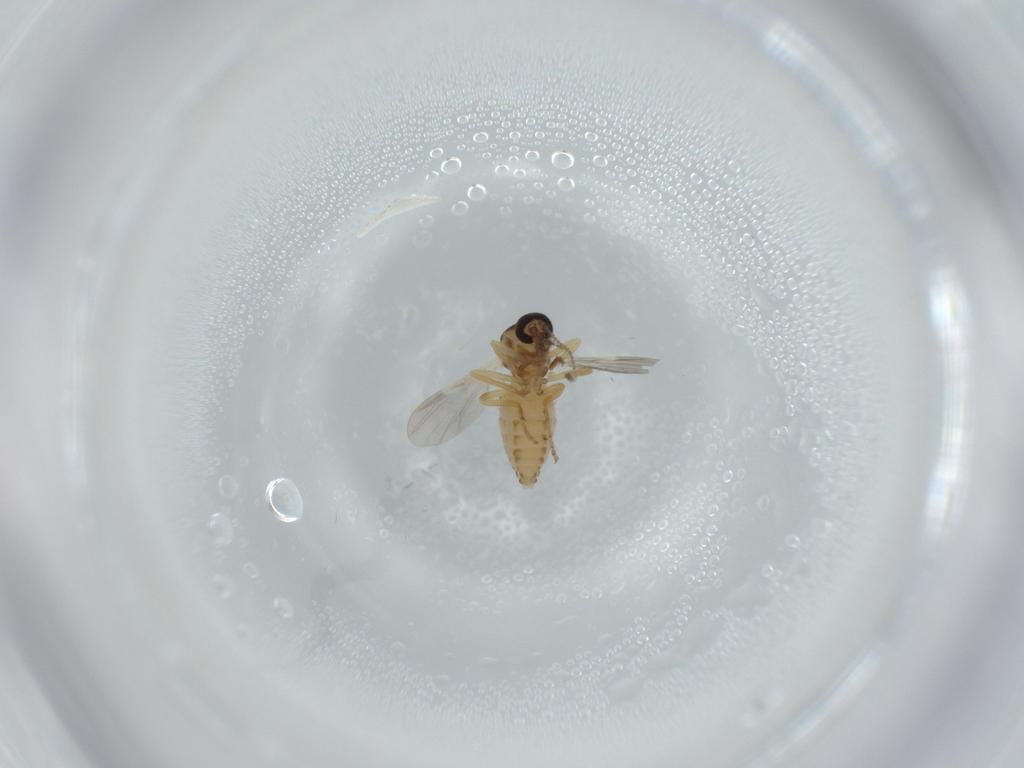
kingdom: Animalia
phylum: Arthropoda
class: Insecta
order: Diptera
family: Ceratopogonidae
